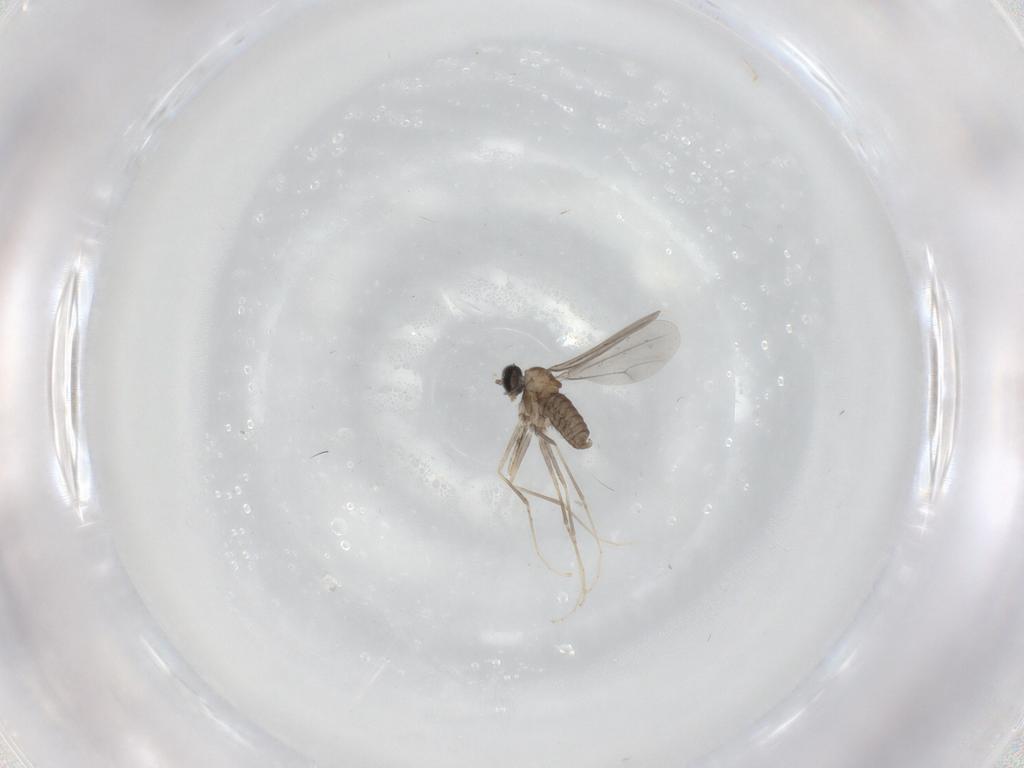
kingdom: Animalia
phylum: Arthropoda
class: Insecta
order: Diptera
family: Cecidomyiidae
